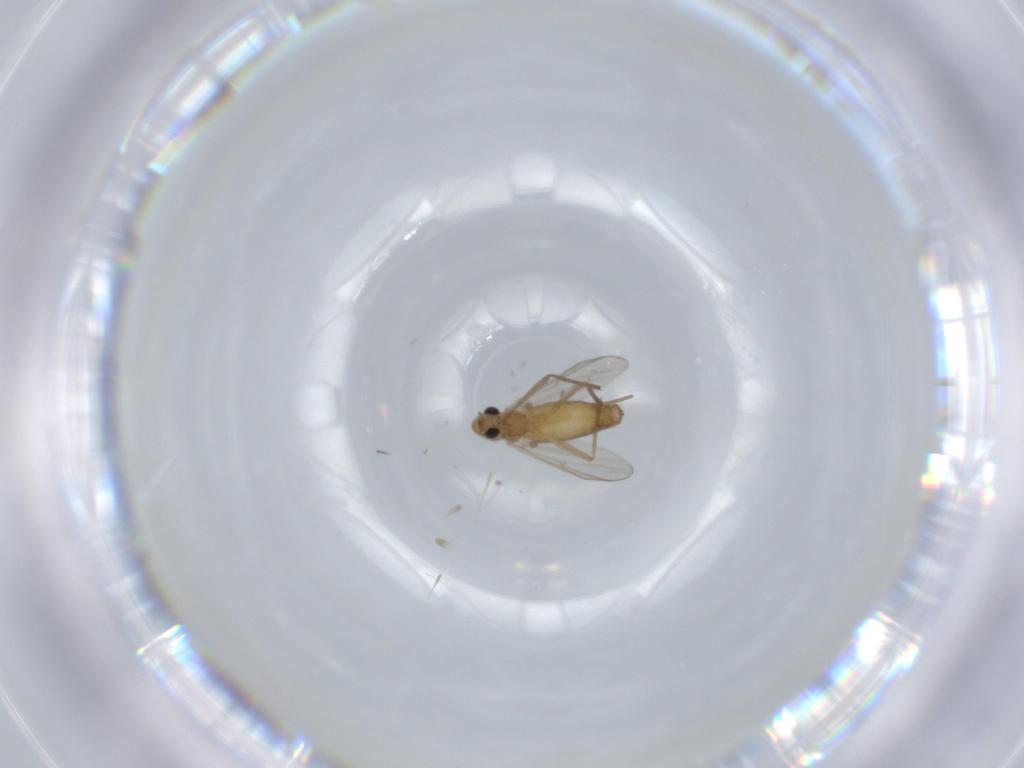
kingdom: Animalia
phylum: Arthropoda
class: Insecta
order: Diptera
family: Chironomidae
